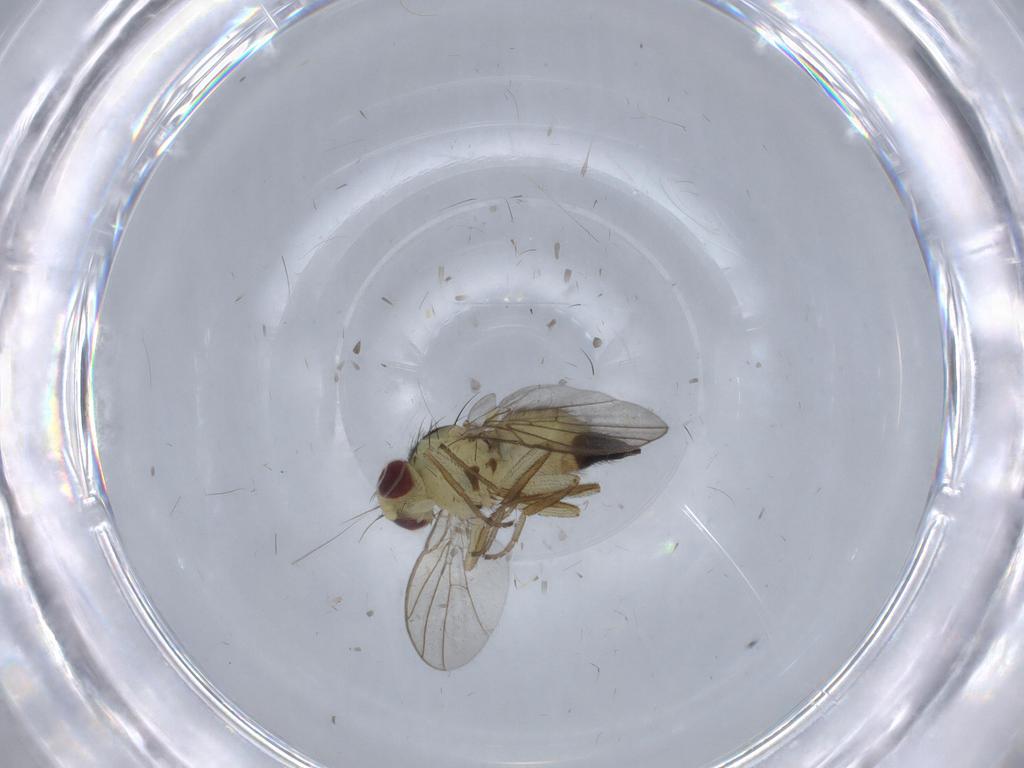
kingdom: Animalia
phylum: Arthropoda
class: Insecta
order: Diptera
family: Agromyzidae
